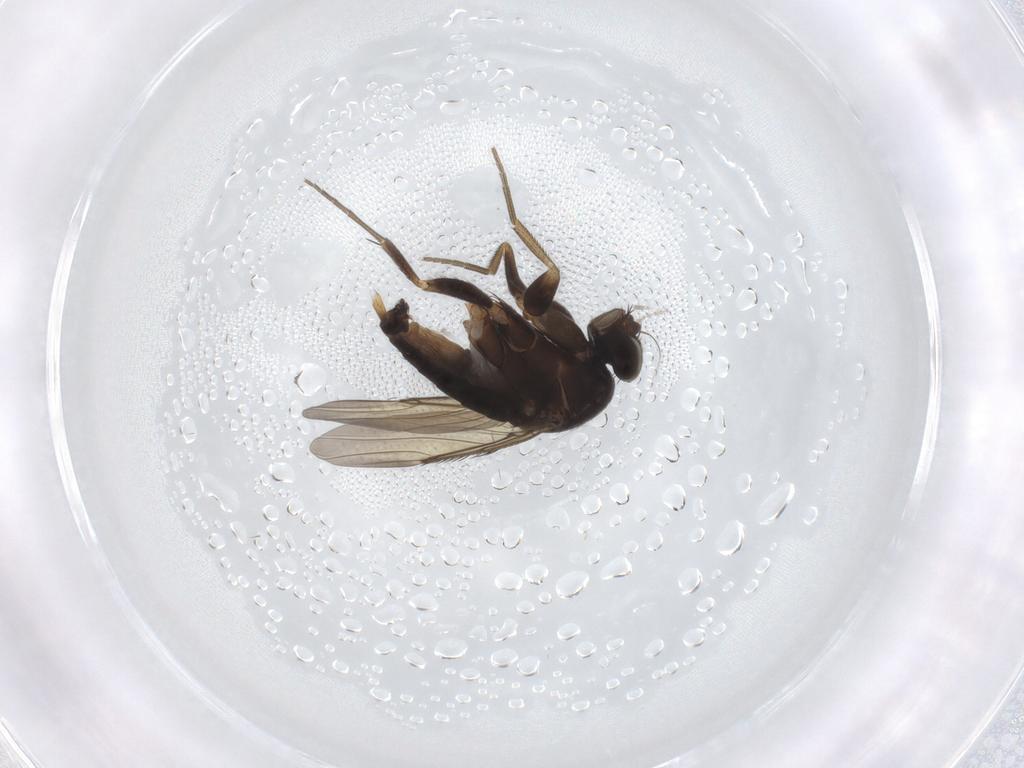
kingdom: Animalia
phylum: Arthropoda
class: Insecta
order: Diptera
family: Phoridae
